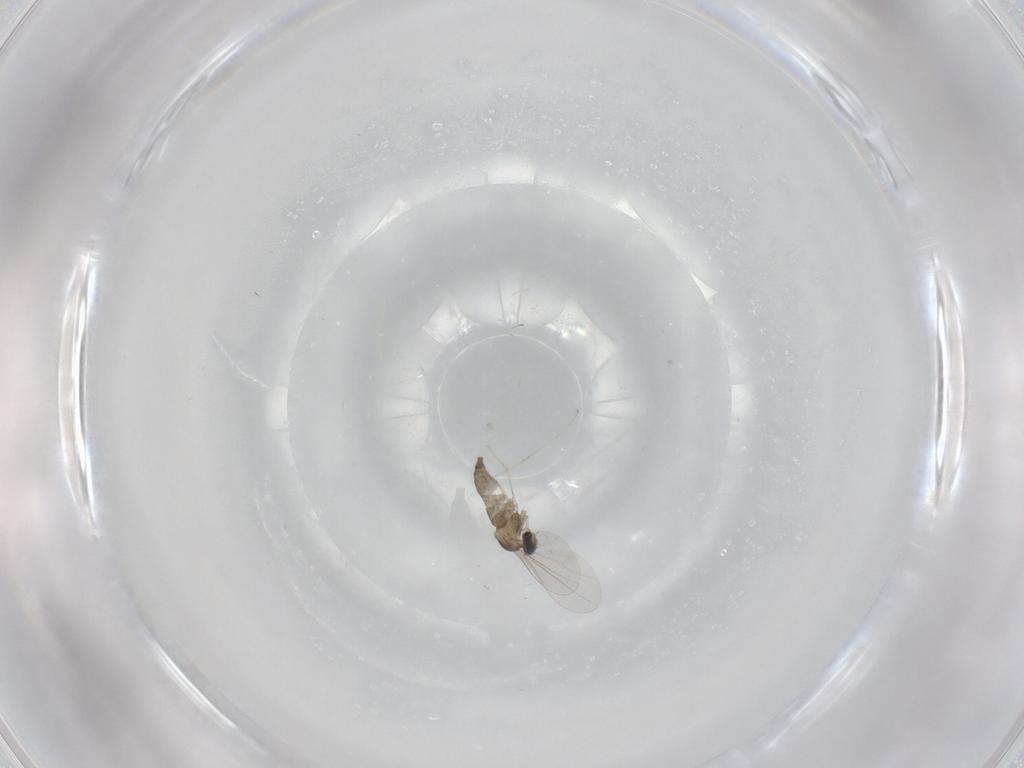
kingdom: Animalia
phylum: Arthropoda
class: Insecta
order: Diptera
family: Cecidomyiidae
